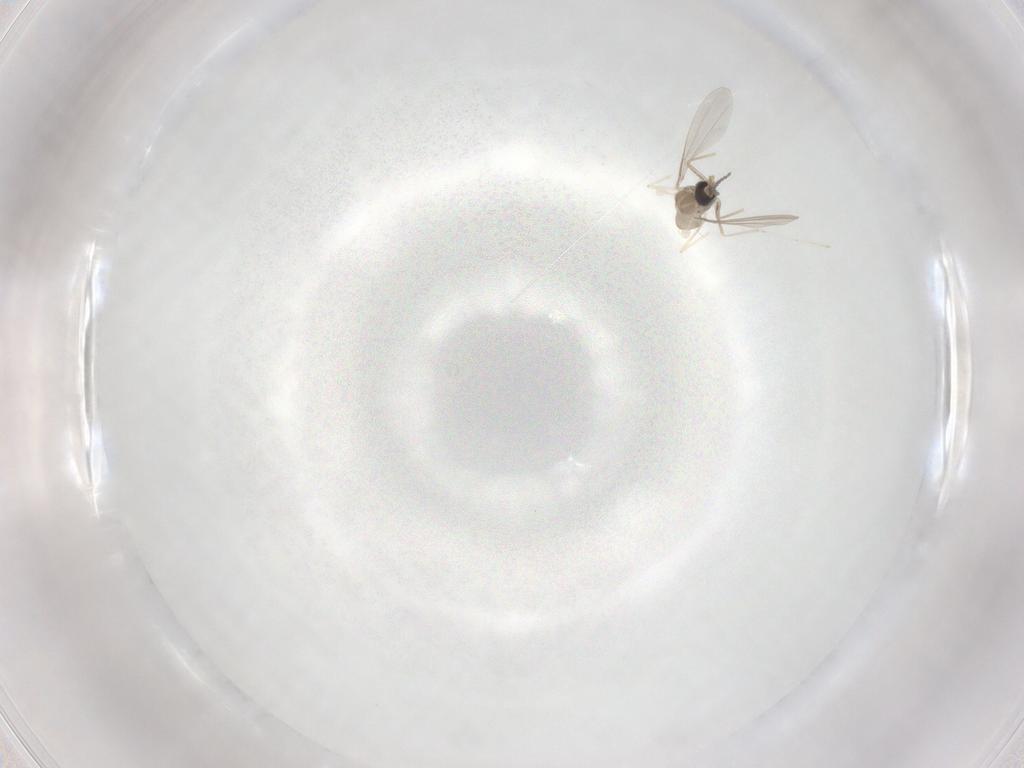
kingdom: Animalia
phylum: Arthropoda
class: Insecta
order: Diptera
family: Cecidomyiidae
